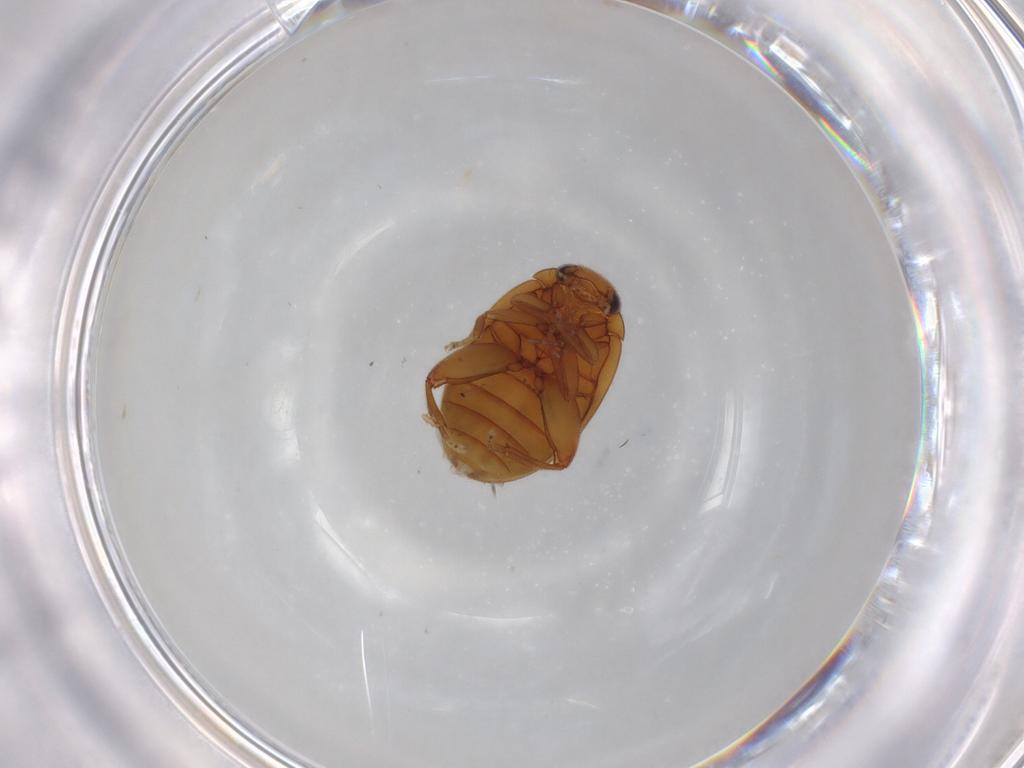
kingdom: Animalia
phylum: Arthropoda
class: Insecta
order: Coleoptera
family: Scirtidae
